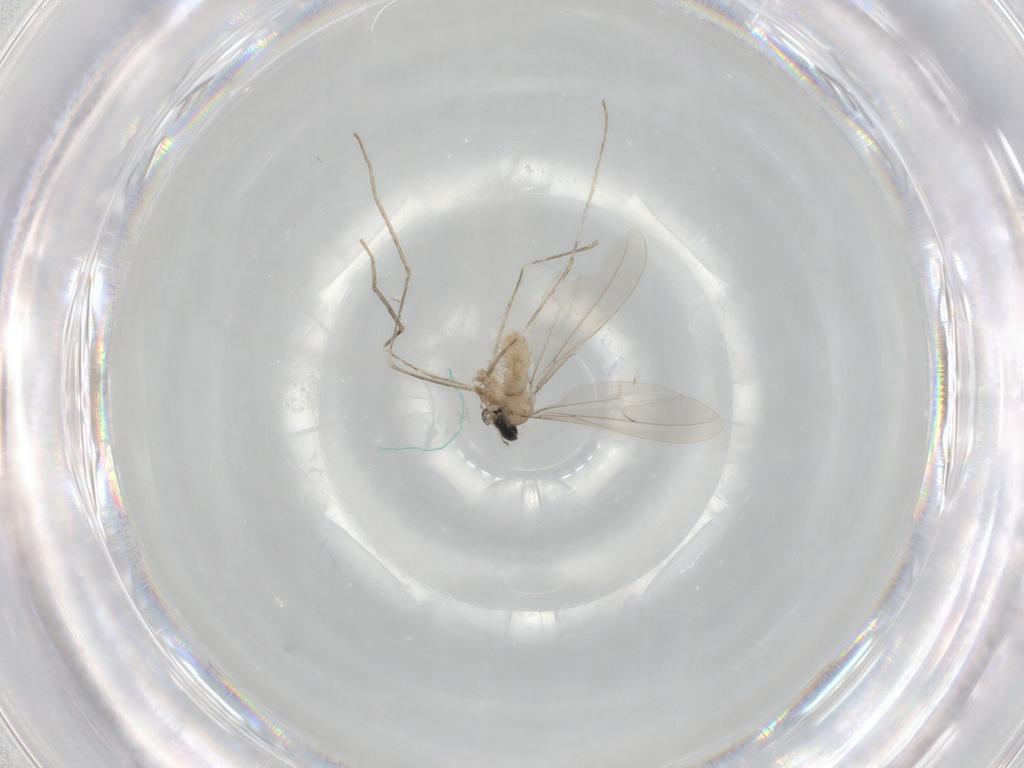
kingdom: Animalia
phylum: Arthropoda
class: Insecta
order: Diptera
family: Cecidomyiidae
